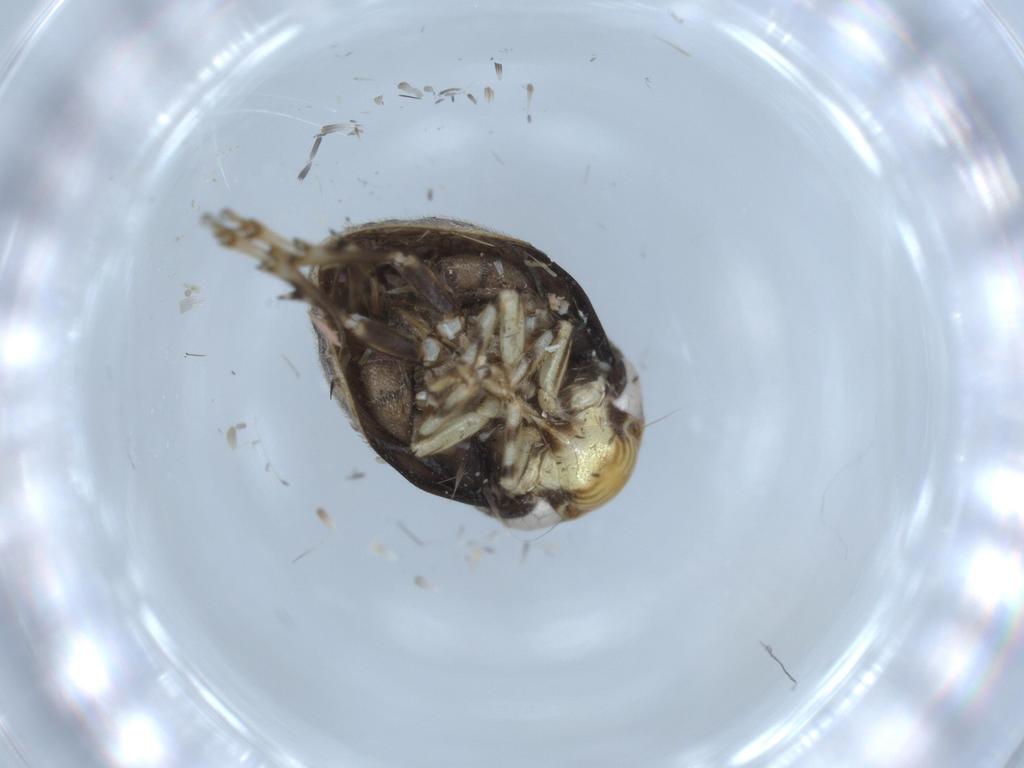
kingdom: Animalia
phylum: Arthropoda
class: Insecta
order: Hemiptera
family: Clastopteridae
